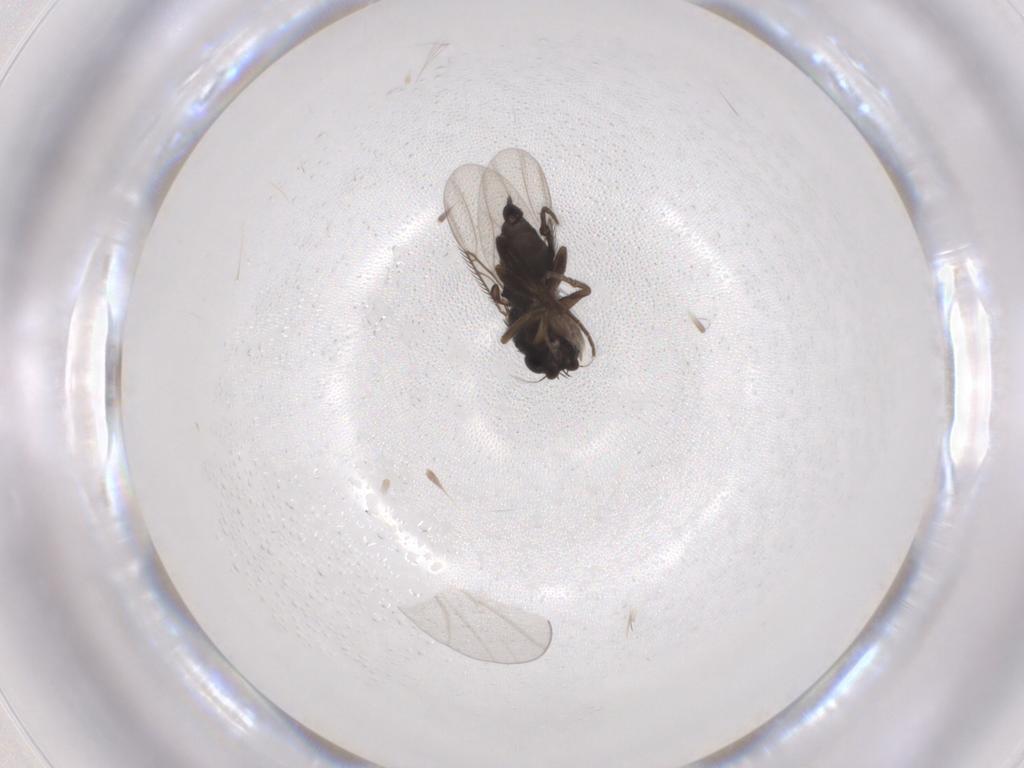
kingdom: Animalia
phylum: Arthropoda
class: Insecta
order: Diptera
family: Phoridae
